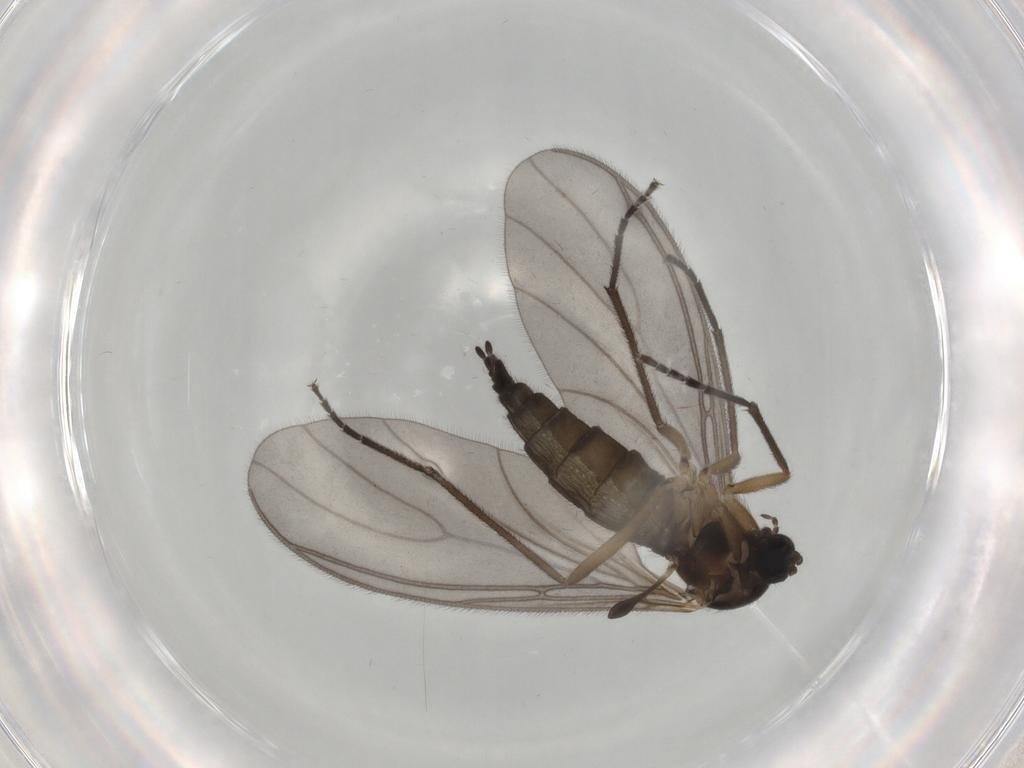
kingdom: Animalia
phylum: Arthropoda
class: Insecta
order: Diptera
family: Sciaridae
